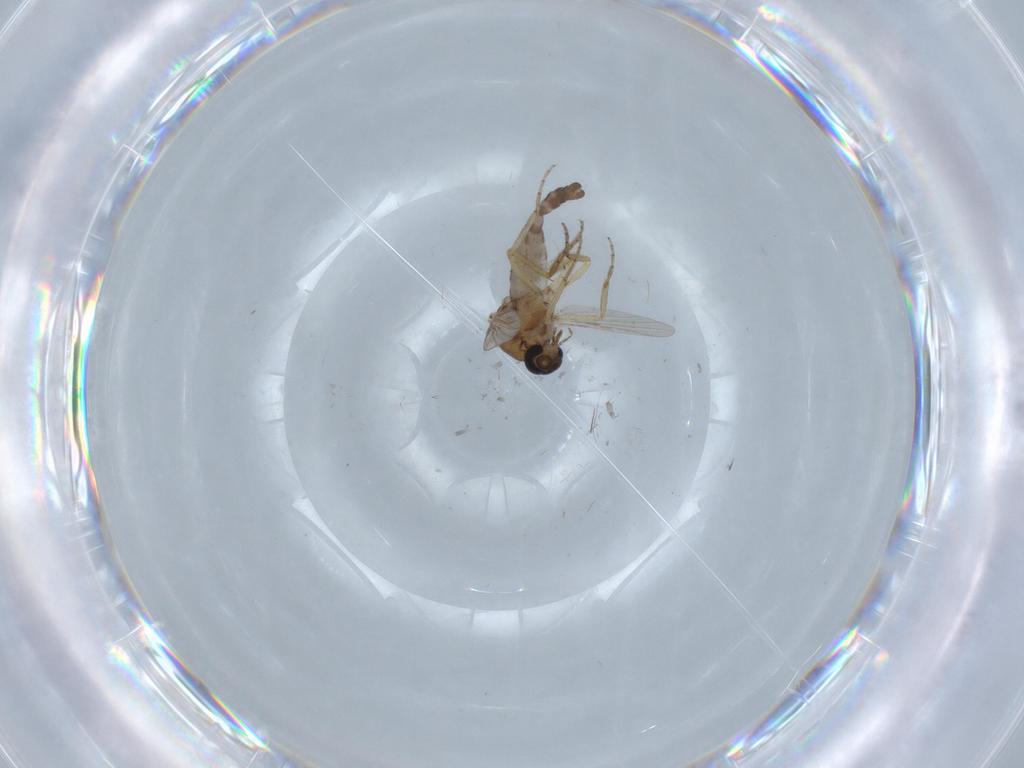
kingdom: Animalia
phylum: Arthropoda
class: Insecta
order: Diptera
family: Ceratopogonidae
